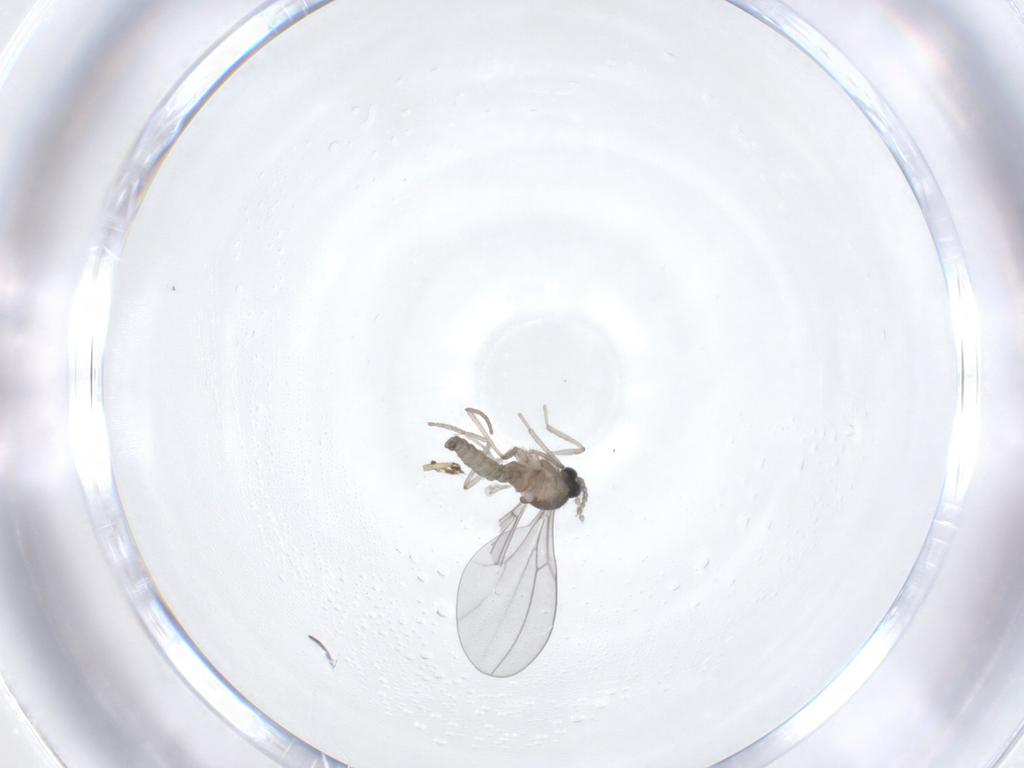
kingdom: Animalia
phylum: Arthropoda
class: Insecta
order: Diptera
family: Cecidomyiidae
